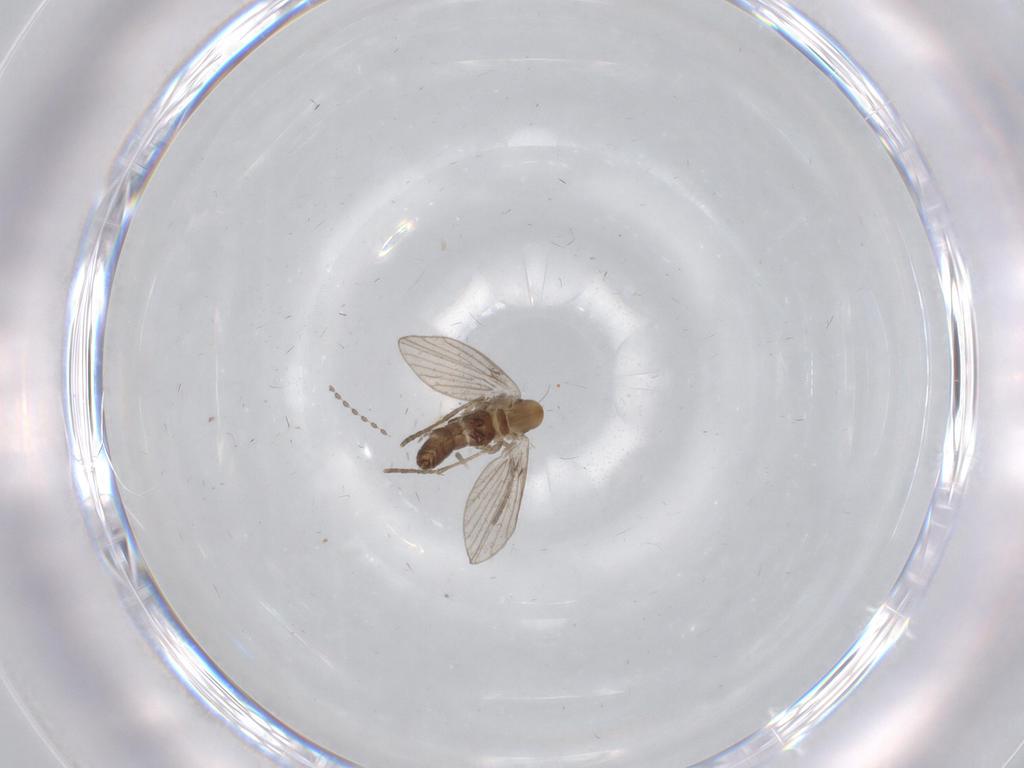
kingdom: Animalia
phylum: Arthropoda
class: Insecta
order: Diptera
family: Cecidomyiidae
